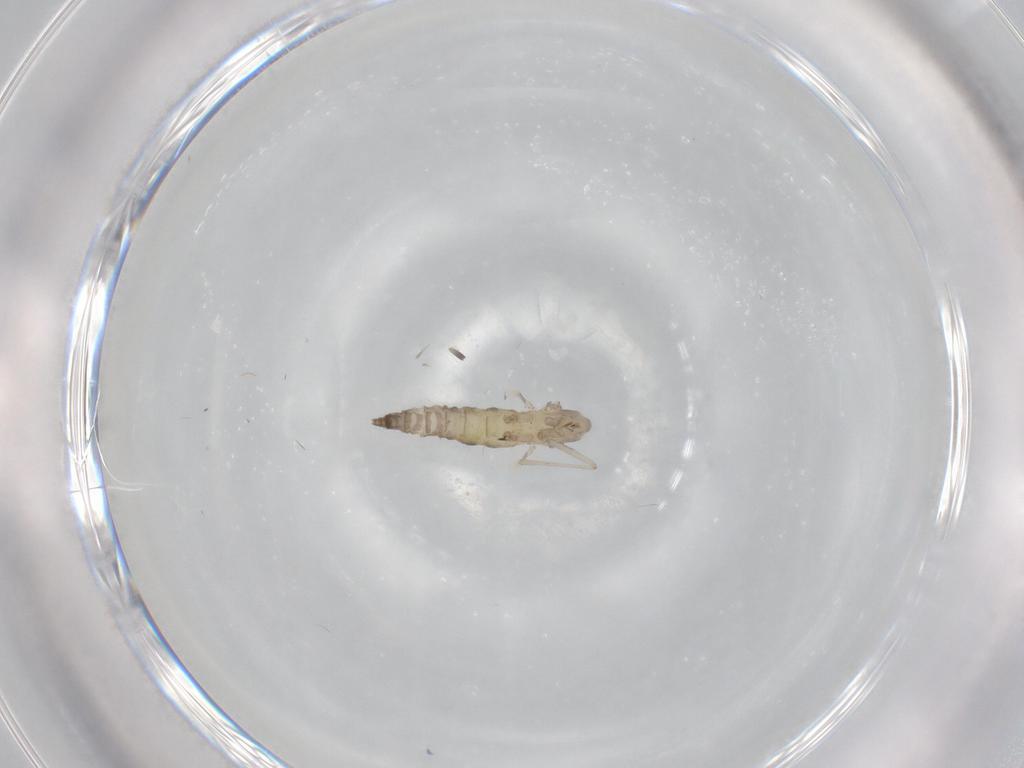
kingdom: Animalia
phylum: Arthropoda
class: Insecta
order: Diptera
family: Cecidomyiidae
